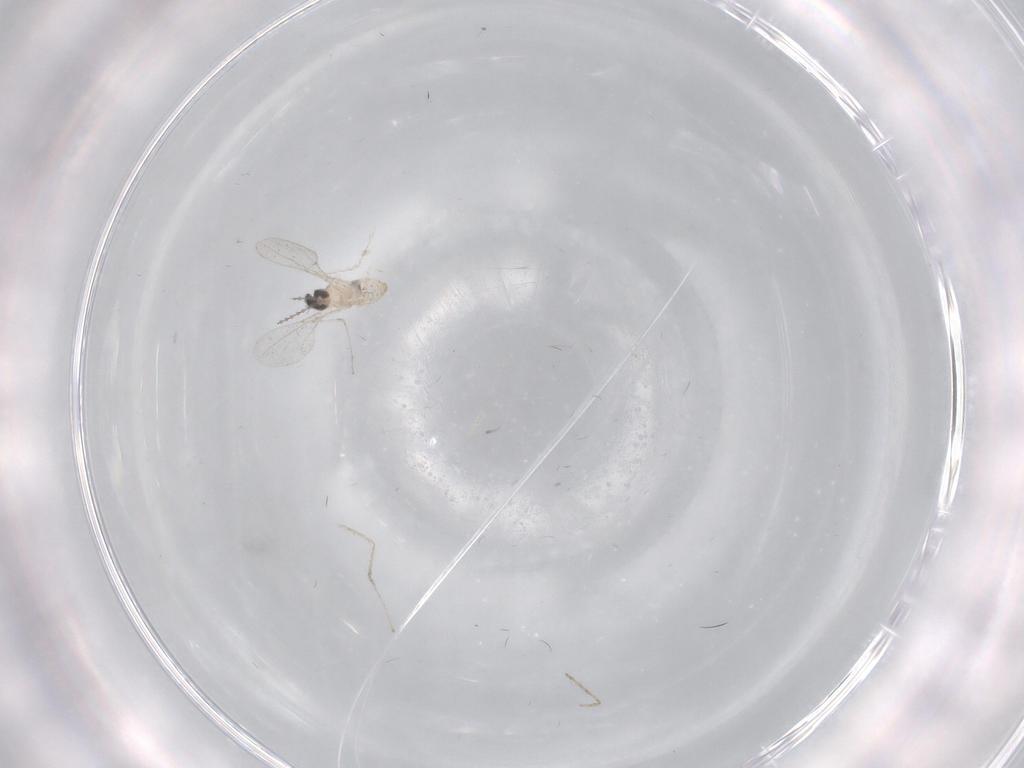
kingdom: Animalia
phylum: Arthropoda
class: Insecta
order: Diptera
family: Cecidomyiidae
